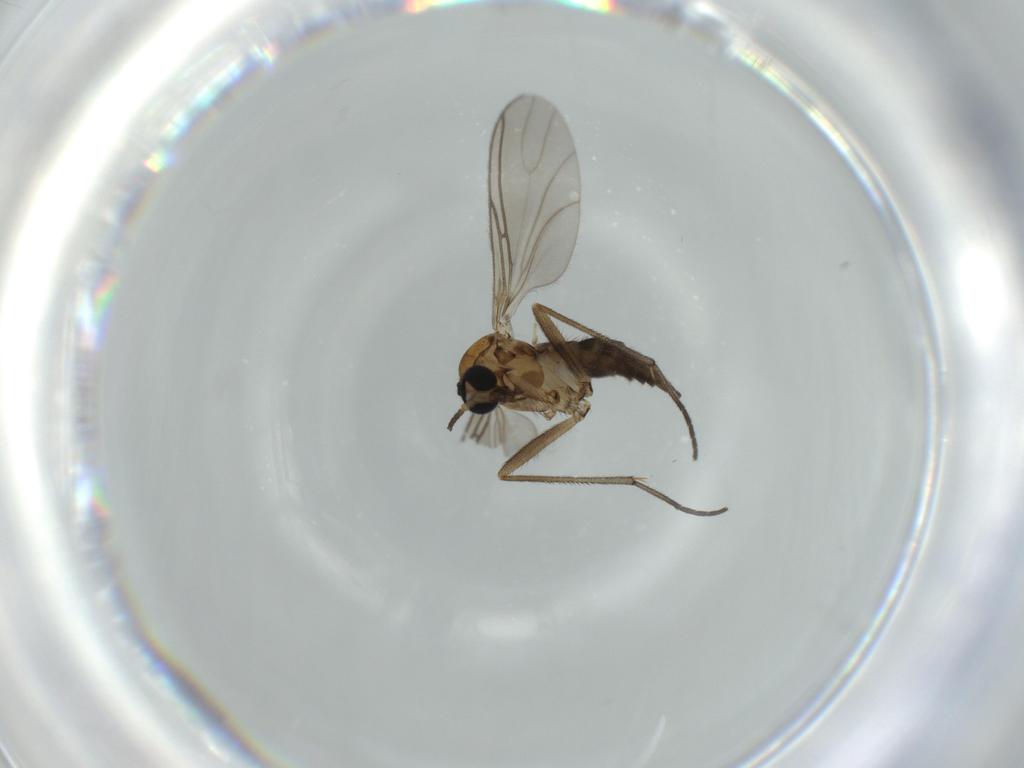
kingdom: Animalia
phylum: Arthropoda
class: Insecta
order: Diptera
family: Sciaridae
